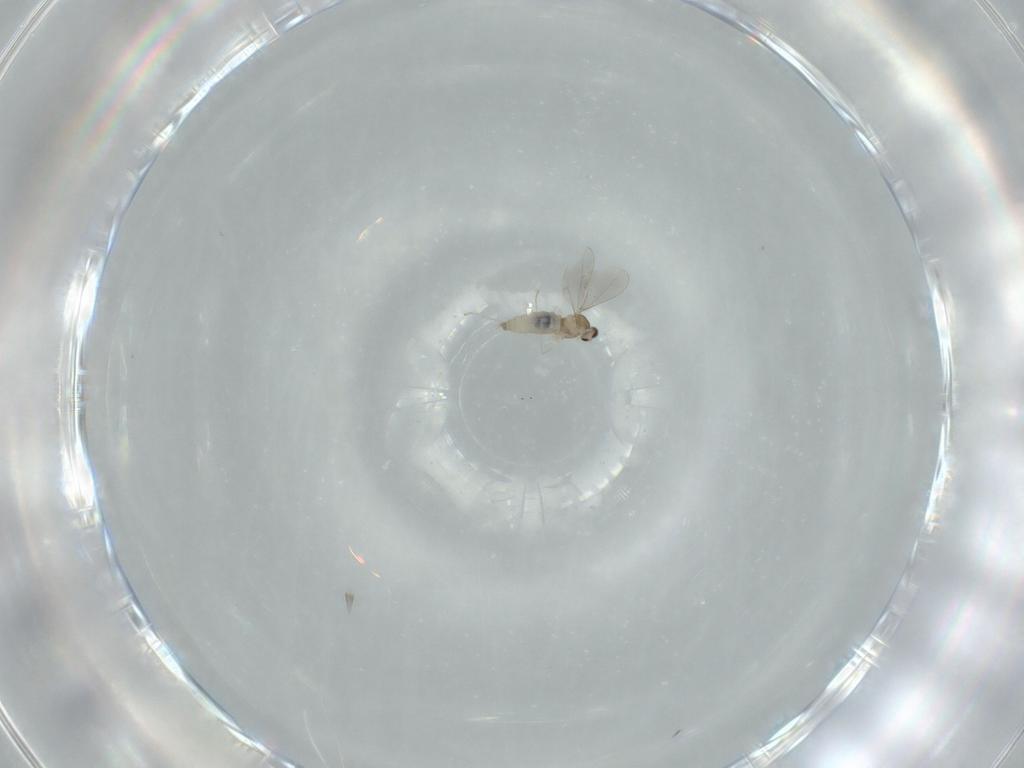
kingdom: Animalia
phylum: Arthropoda
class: Insecta
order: Diptera
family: Cecidomyiidae
